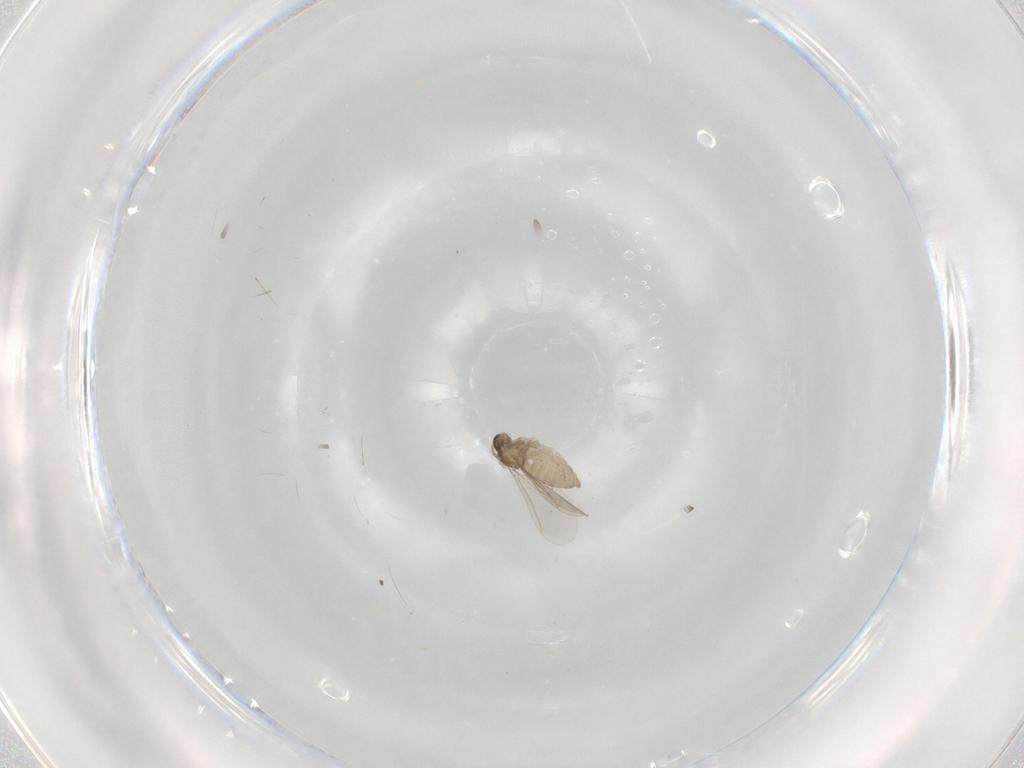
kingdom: Animalia
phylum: Arthropoda
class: Insecta
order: Diptera
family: Cecidomyiidae
